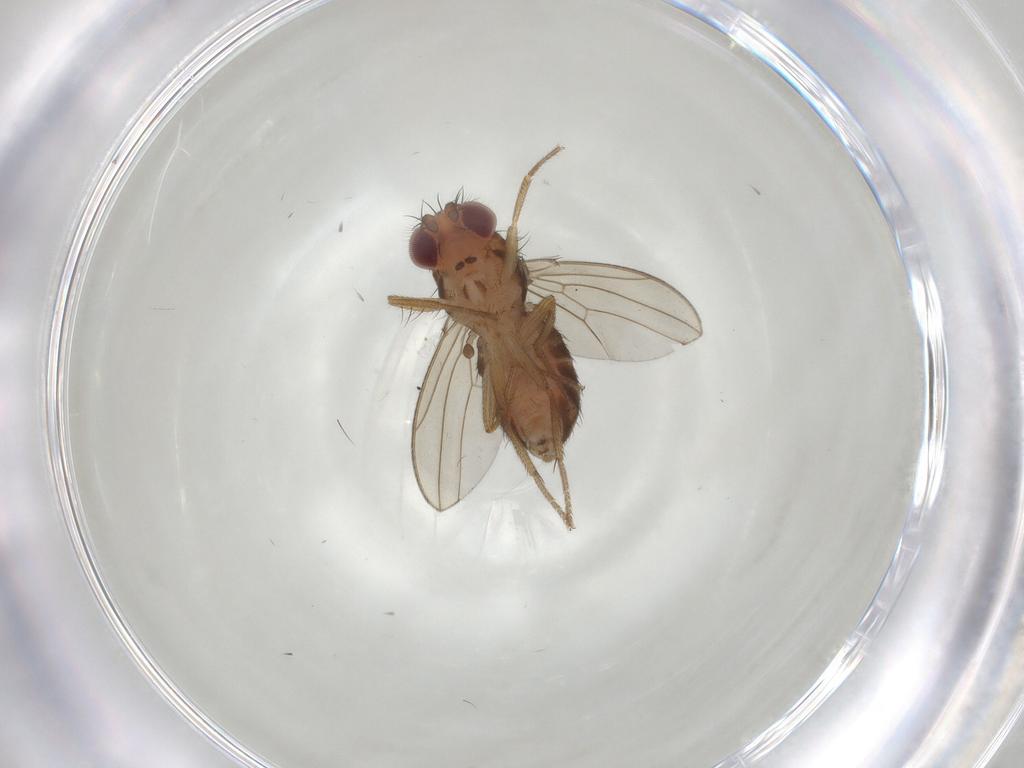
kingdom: Animalia
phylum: Arthropoda
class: Insecta
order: Diptera
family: Drosophilidae
